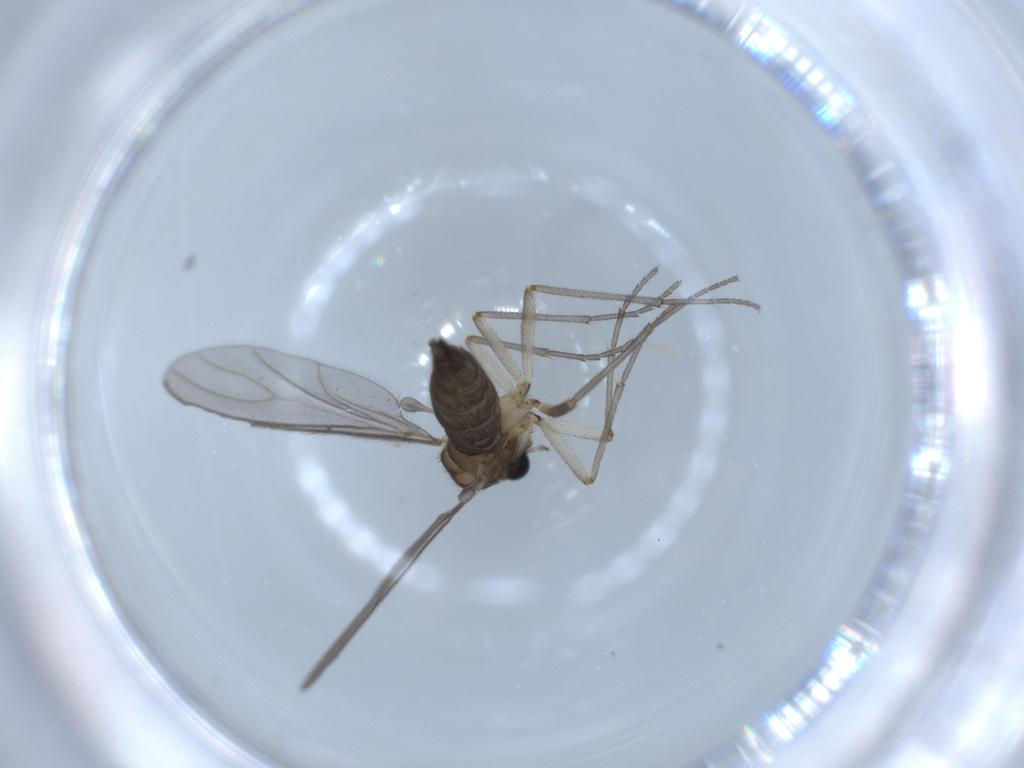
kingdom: Animalia
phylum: Arthropoda
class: Insecta
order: Diptera
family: Sciaridae
